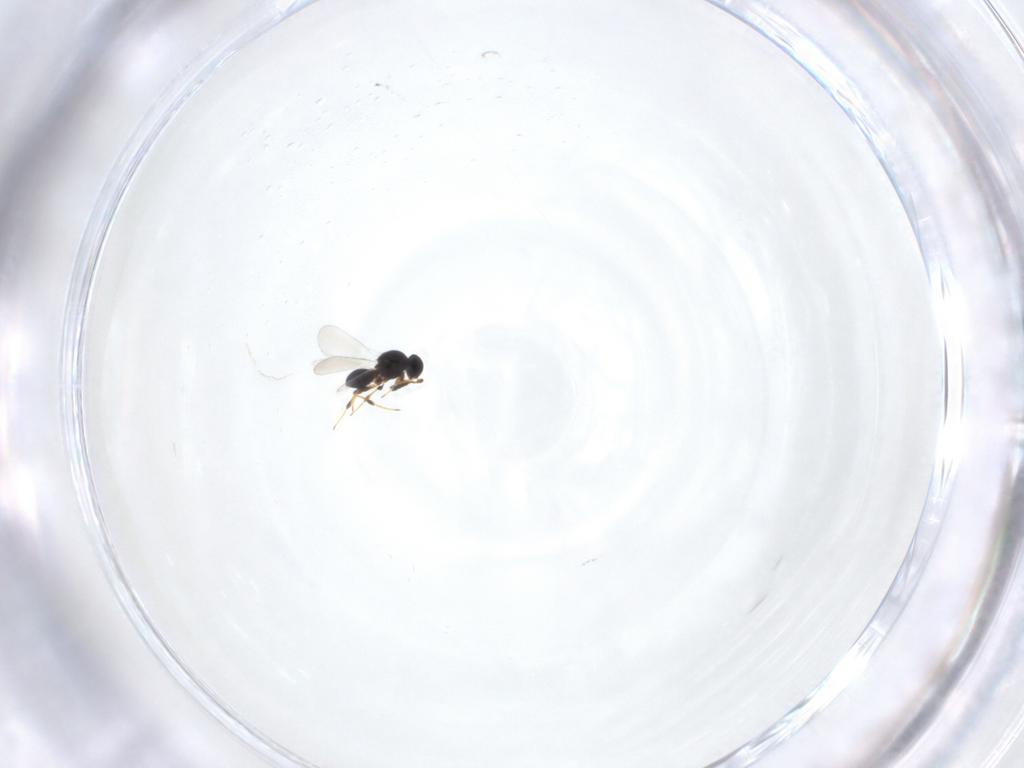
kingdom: Animalia
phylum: Arthropoda
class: Insecta
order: Hymenoptera
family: Platygastridae
